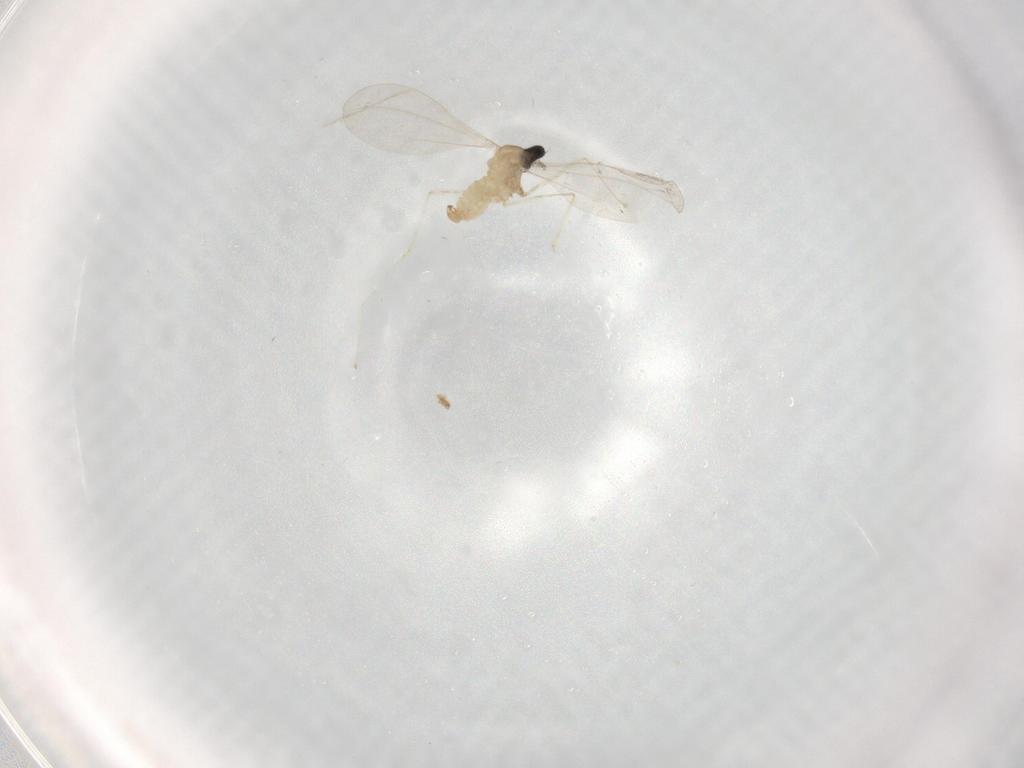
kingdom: Animalia
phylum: Arthropoda
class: Insecta
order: Diptera
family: Cecidomyiidae
